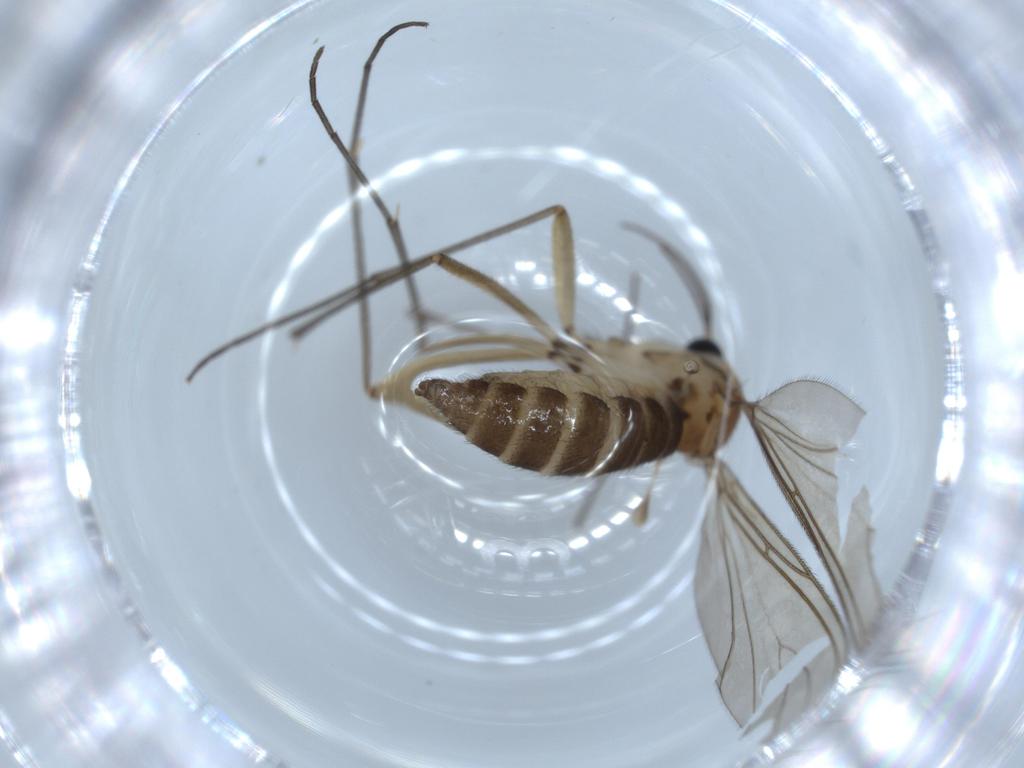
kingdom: Animalia
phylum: Arthropoda
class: Insecta
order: Diptera
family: Sciaridae
